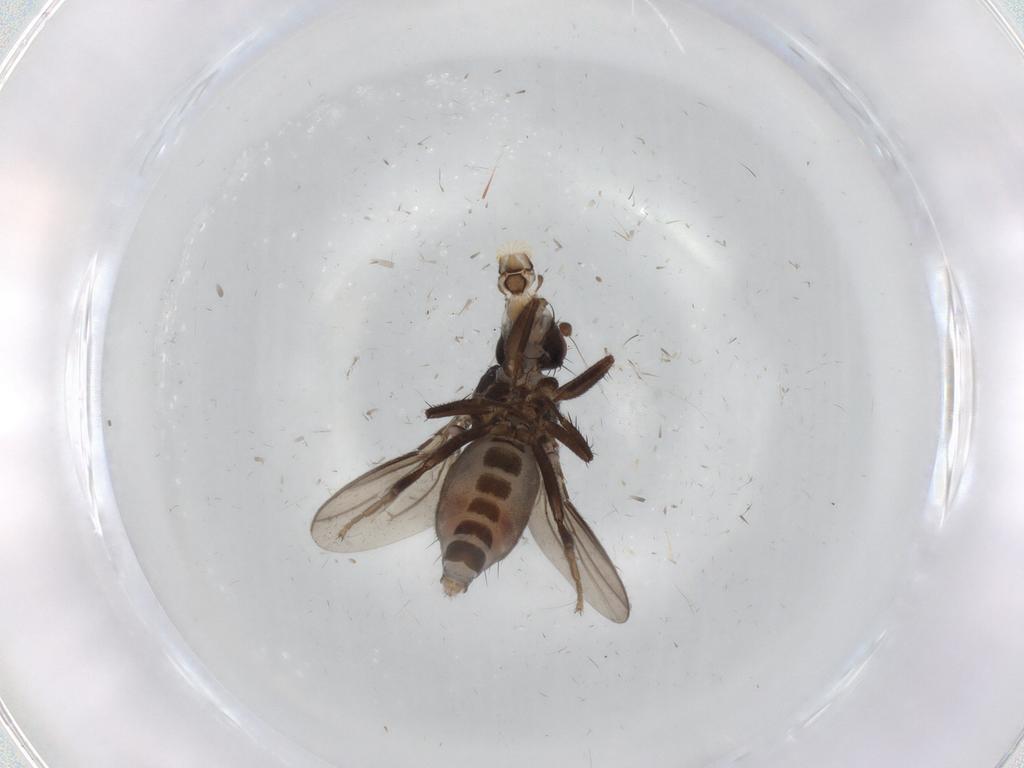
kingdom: Animalia
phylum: Arthropoda
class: Insecta
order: Diptera
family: Sphaeroceridae
